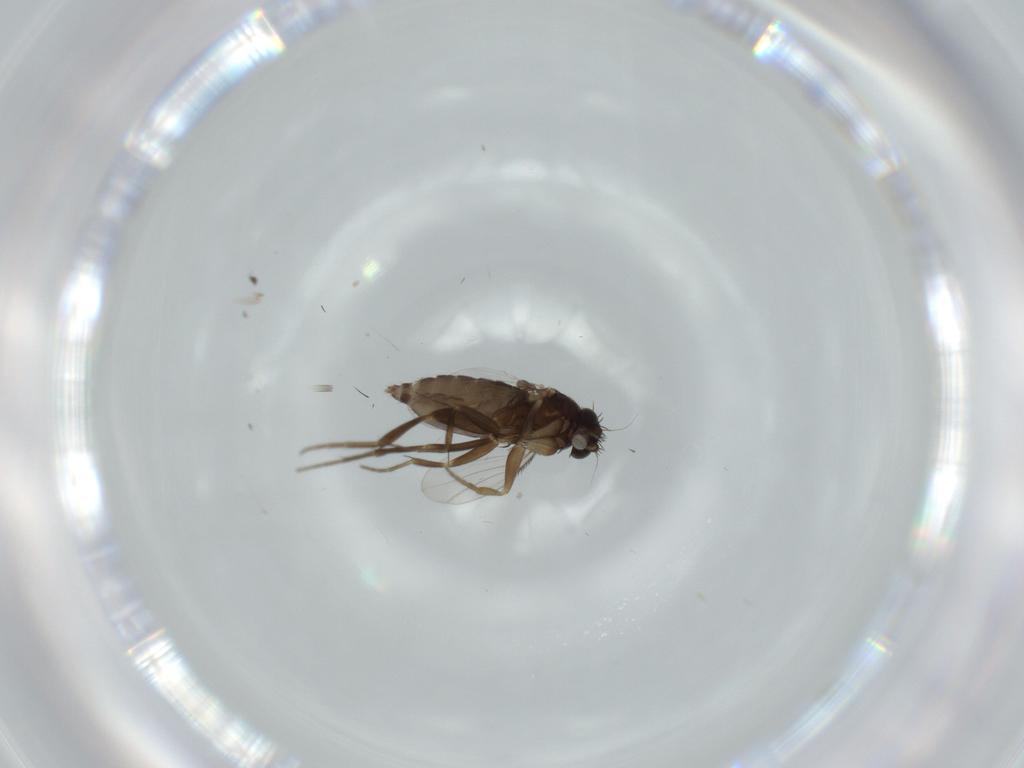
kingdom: Animalia
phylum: Arthropoda
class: Insecta
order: Diptera
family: Phoridae
